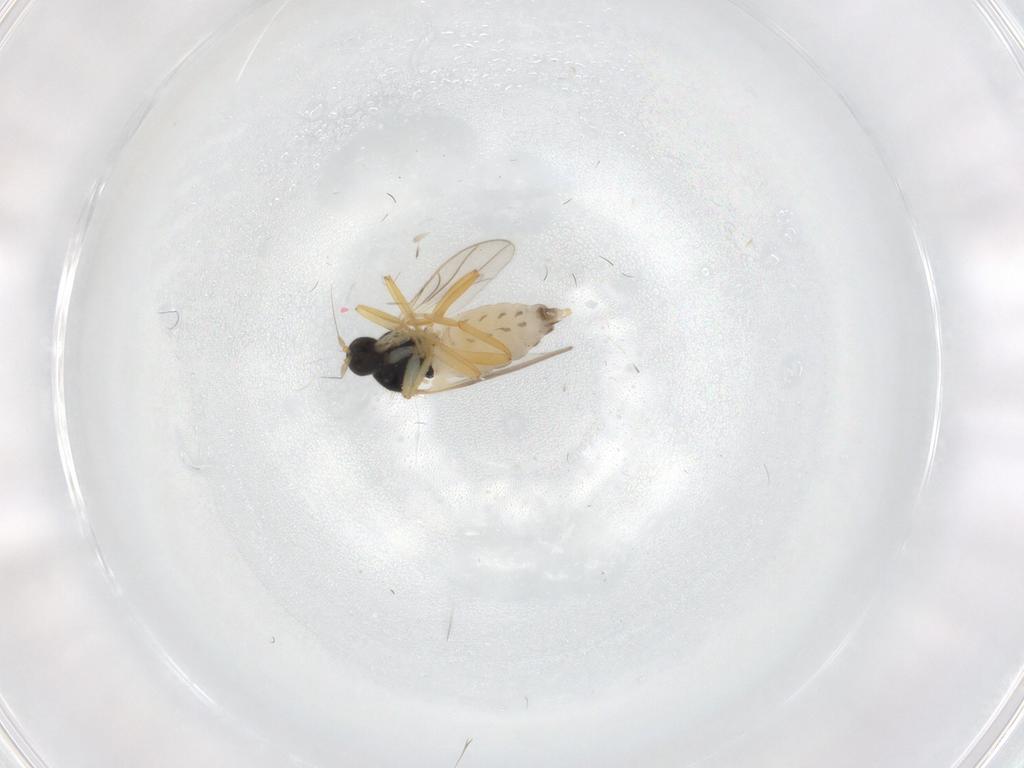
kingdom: Animalia
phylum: Arthropoda
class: Insecta
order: Diptera
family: Hybotidae
